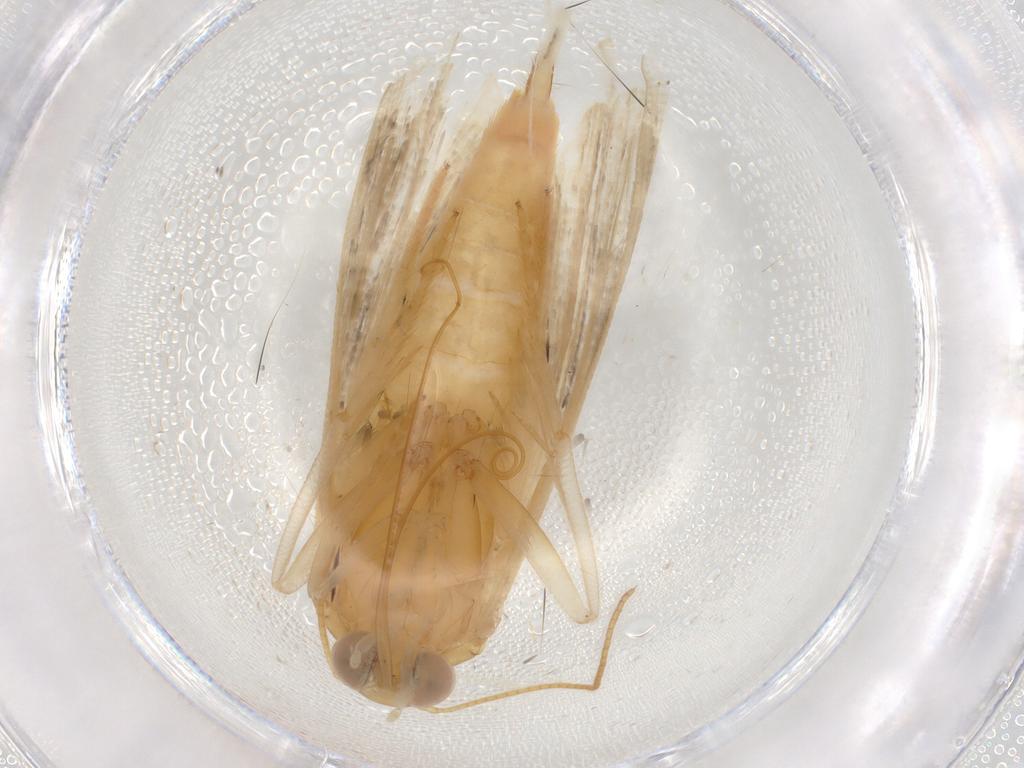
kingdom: Animalia
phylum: Arthropoda
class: Insecta
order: Lepidoptera
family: Noctuidae
